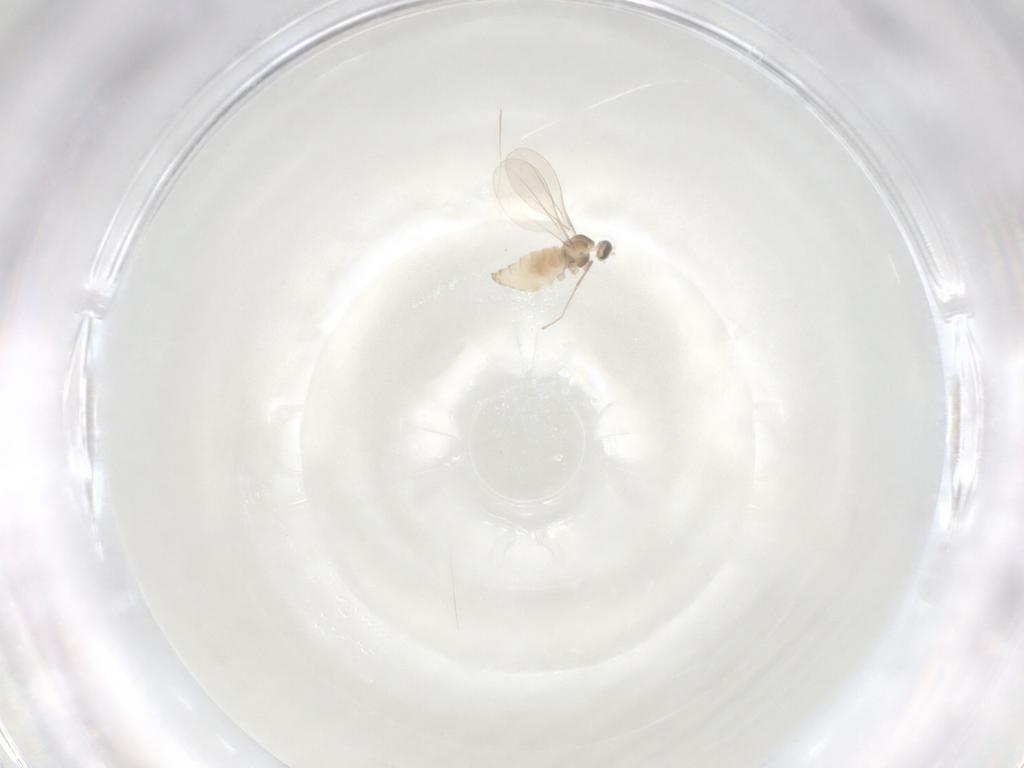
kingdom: Animalia
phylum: Arthropoda
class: Insecta
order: Diptera
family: Chironomidae
